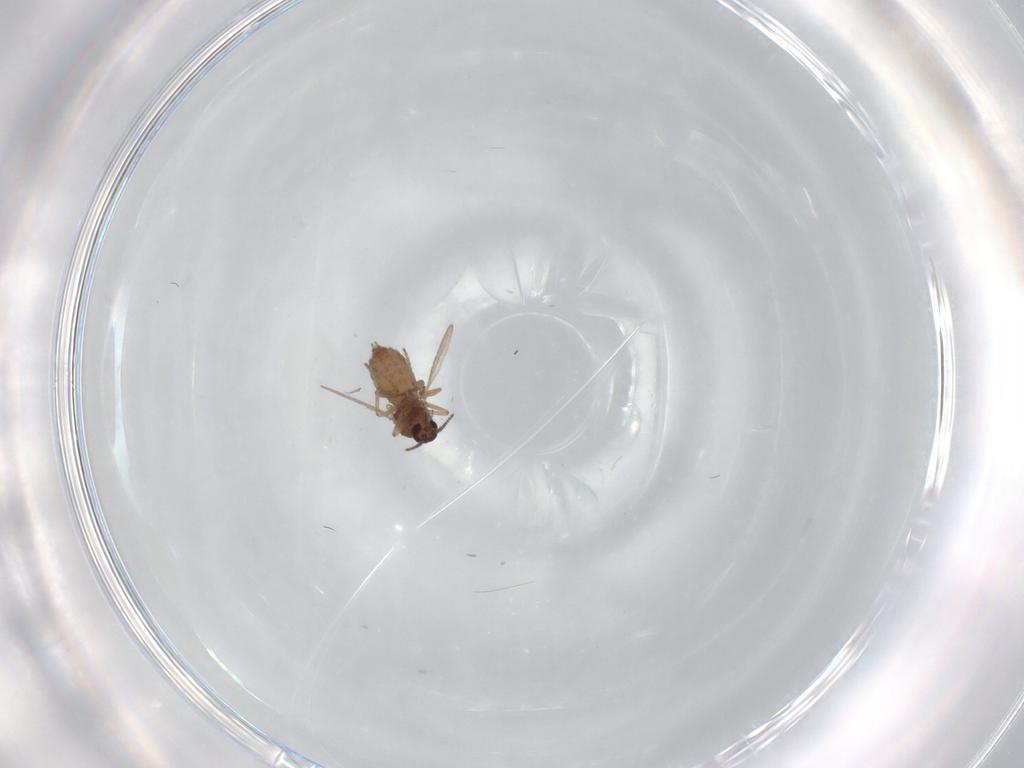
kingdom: Animalia
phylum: Arthropoda
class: Insecta
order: Diptera
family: Ceratopogonidae
